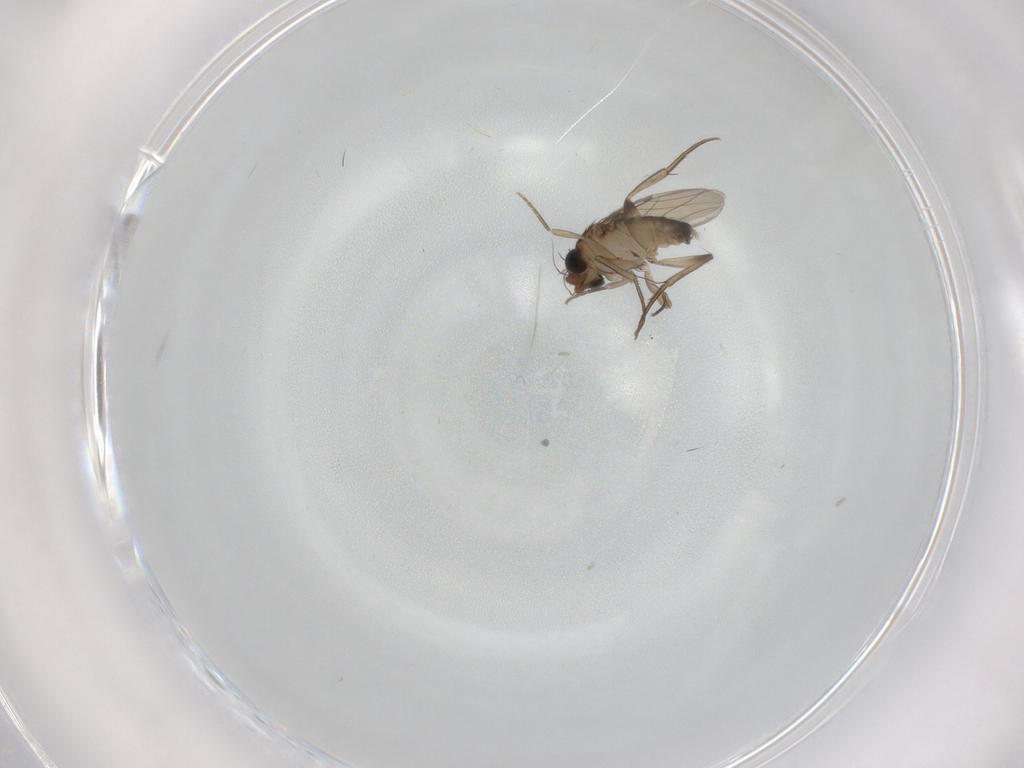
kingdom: Animalia
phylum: Arthropoda
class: Insecta
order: Diptera
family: Phoridae
